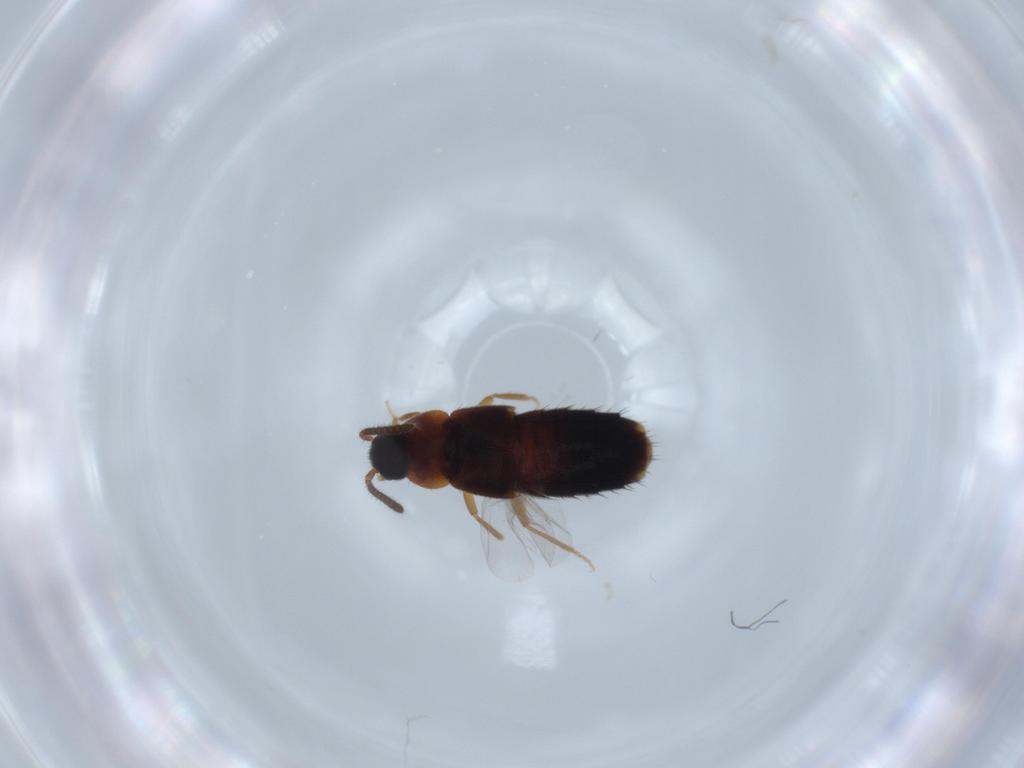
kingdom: Animalia
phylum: Arthropoda
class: Insecta
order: Coleoptera
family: Staphylinidae
